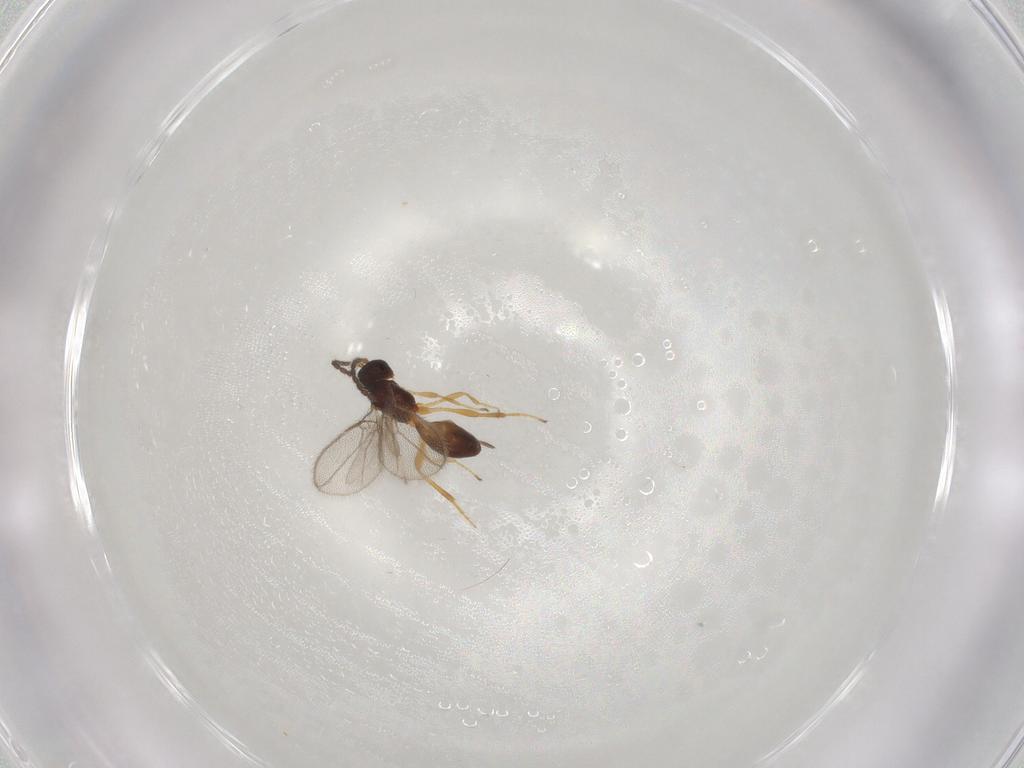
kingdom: Animalia
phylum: Arthropoda
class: Insecta
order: Hymenoptera
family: Braconidae
